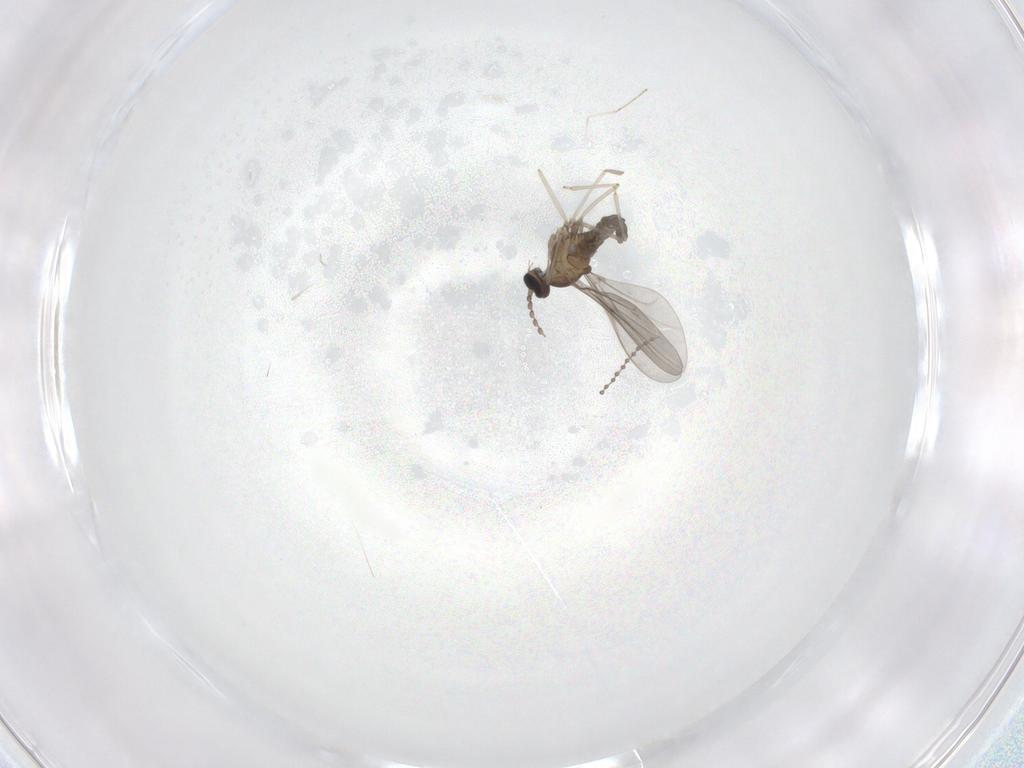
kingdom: Animalia
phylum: Arthropoda
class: Insecta
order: Diptera
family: Cecidomyiidae
